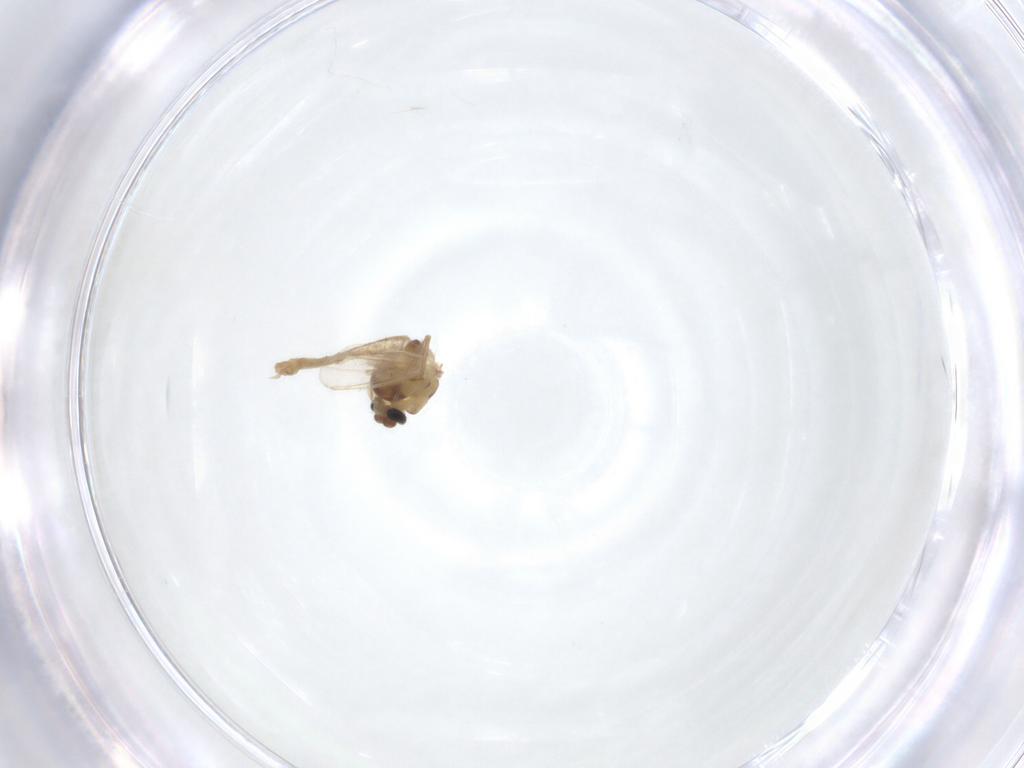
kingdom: Animalia
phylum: Arthropoda
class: Insecta
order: Diptera
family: Chironomidae
